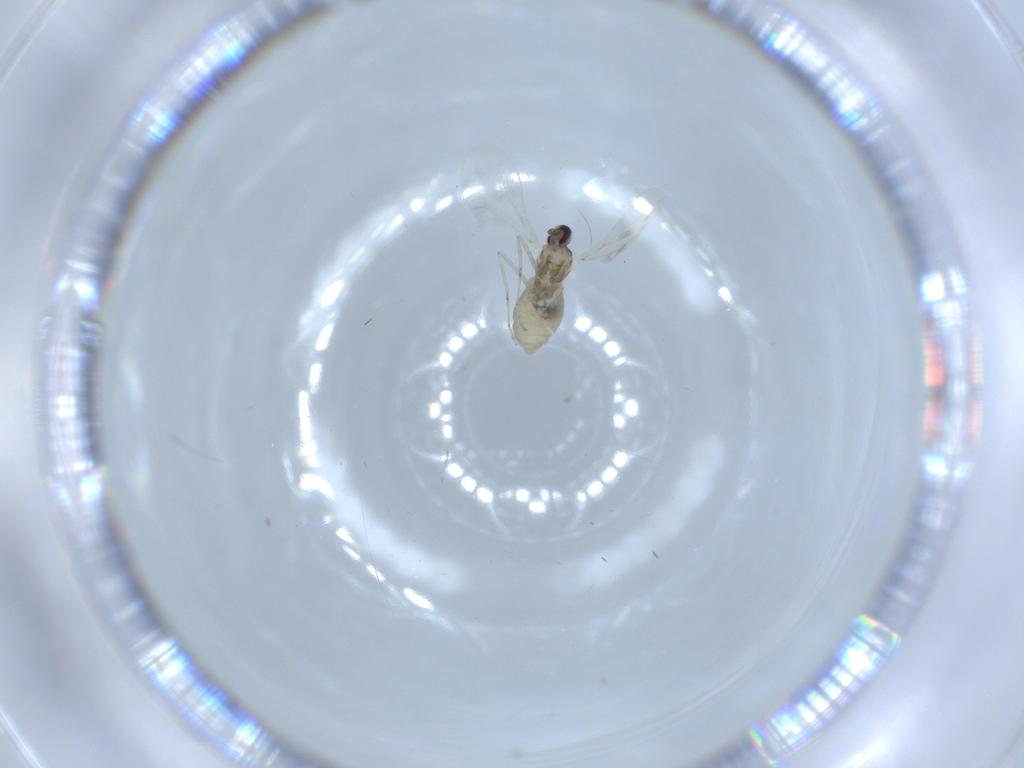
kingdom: Animalia
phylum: Arthropoda
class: Insecta
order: Diptera
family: Cecidomyiidae
